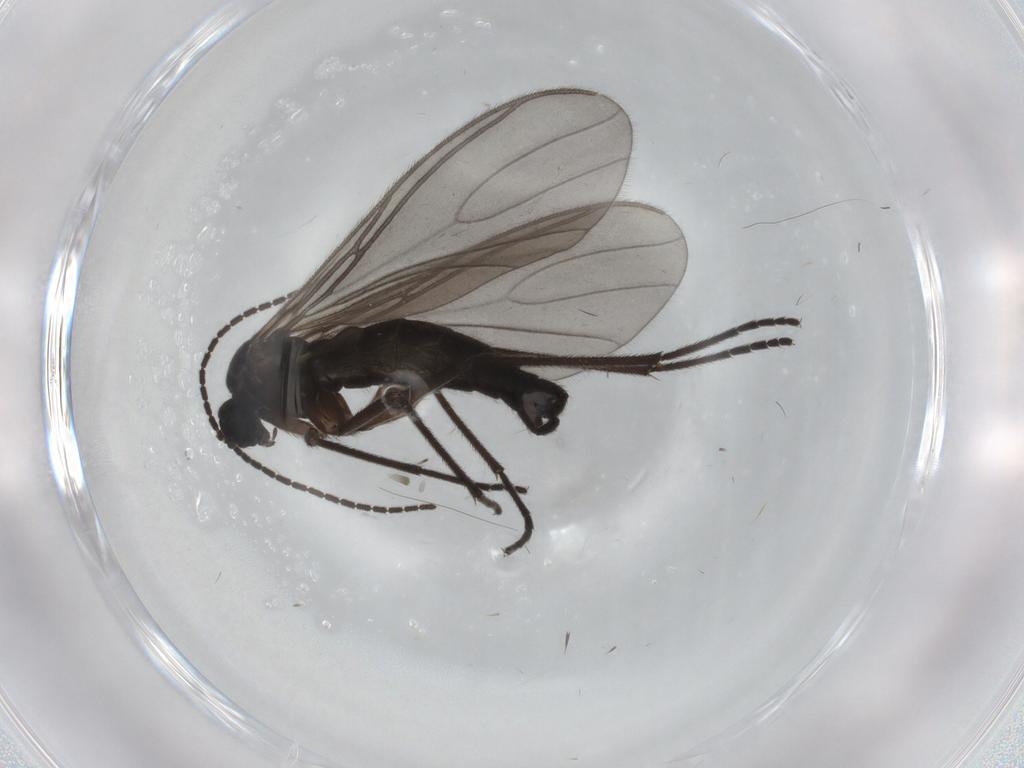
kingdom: Animalia
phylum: Arthropoda
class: Insecta
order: Diptera
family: Sciaridae
